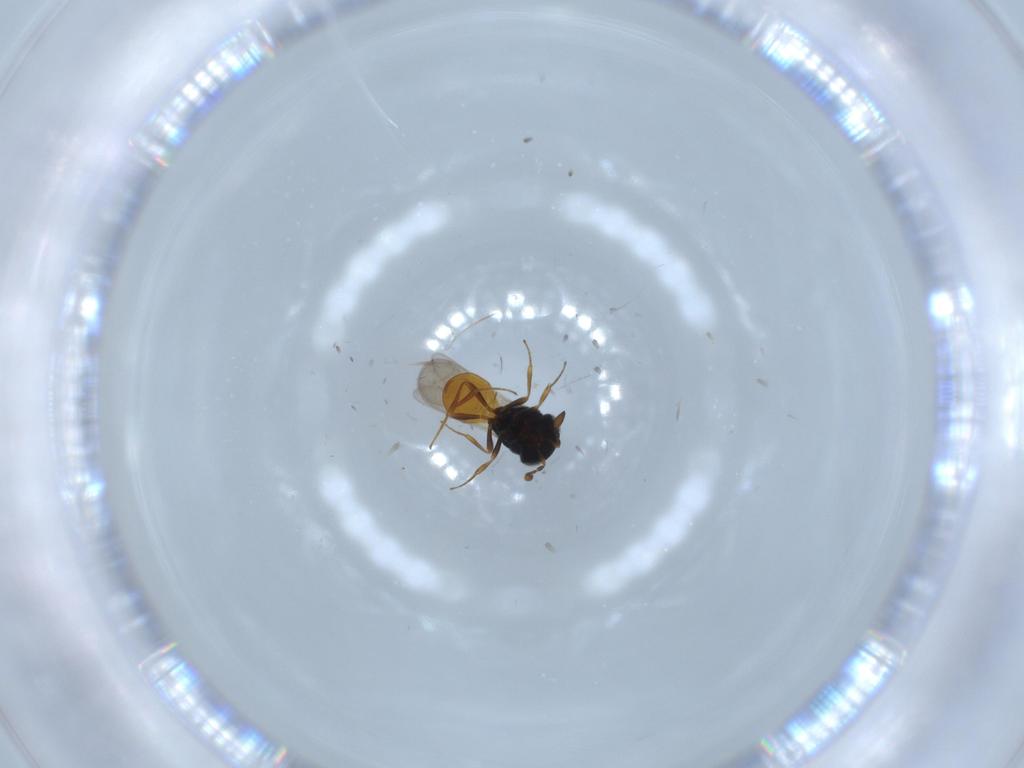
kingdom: Animalia
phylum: Arthropoda
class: Insecta
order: Hymenoptera
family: Scelionidae
